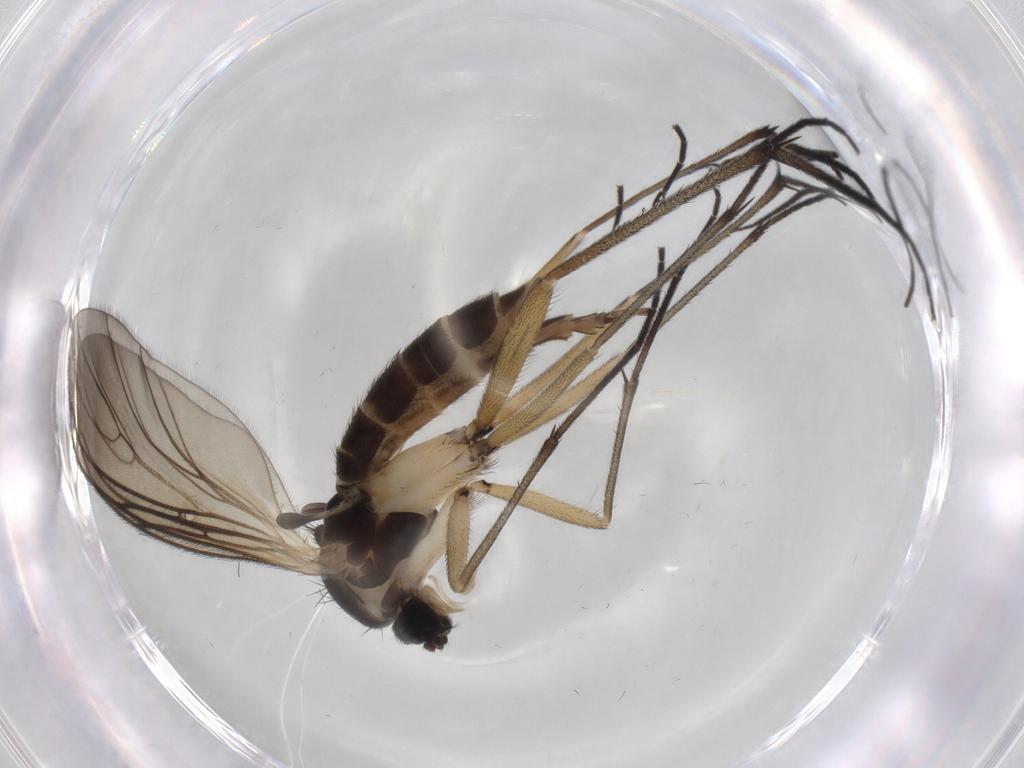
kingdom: Animalia
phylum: Arthropoda
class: Insecta
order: Diptera
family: Sciaridae
